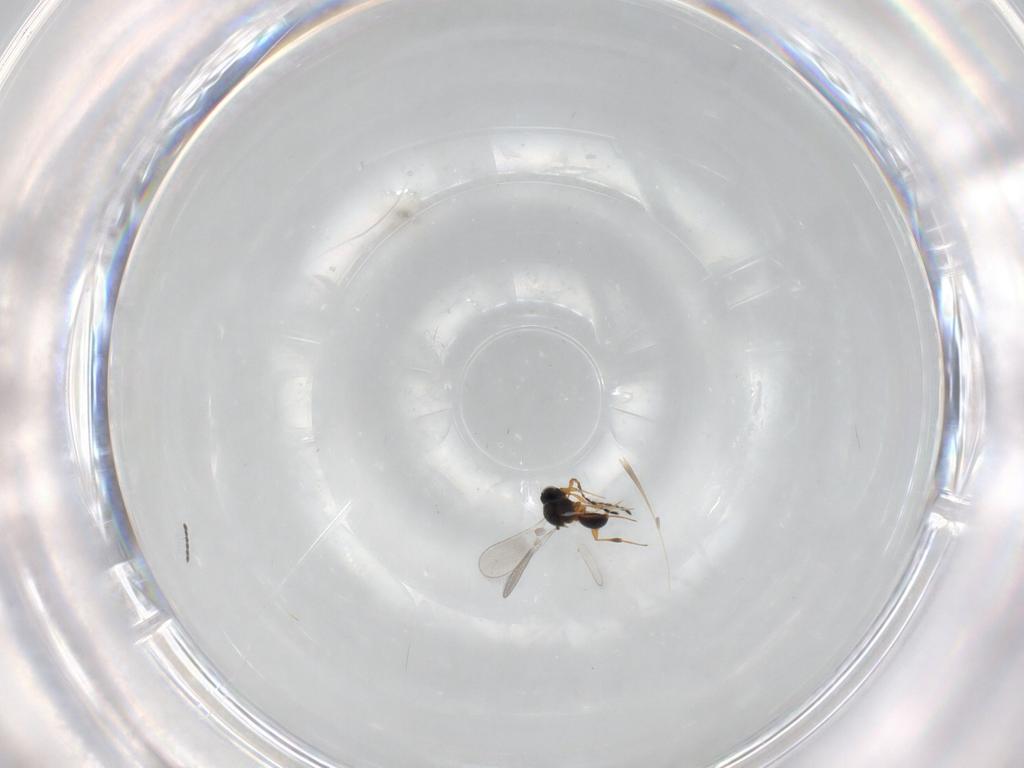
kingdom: Animalia
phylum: Arthropoda
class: Insecta
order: Hymenoptera
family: Platygastridae
